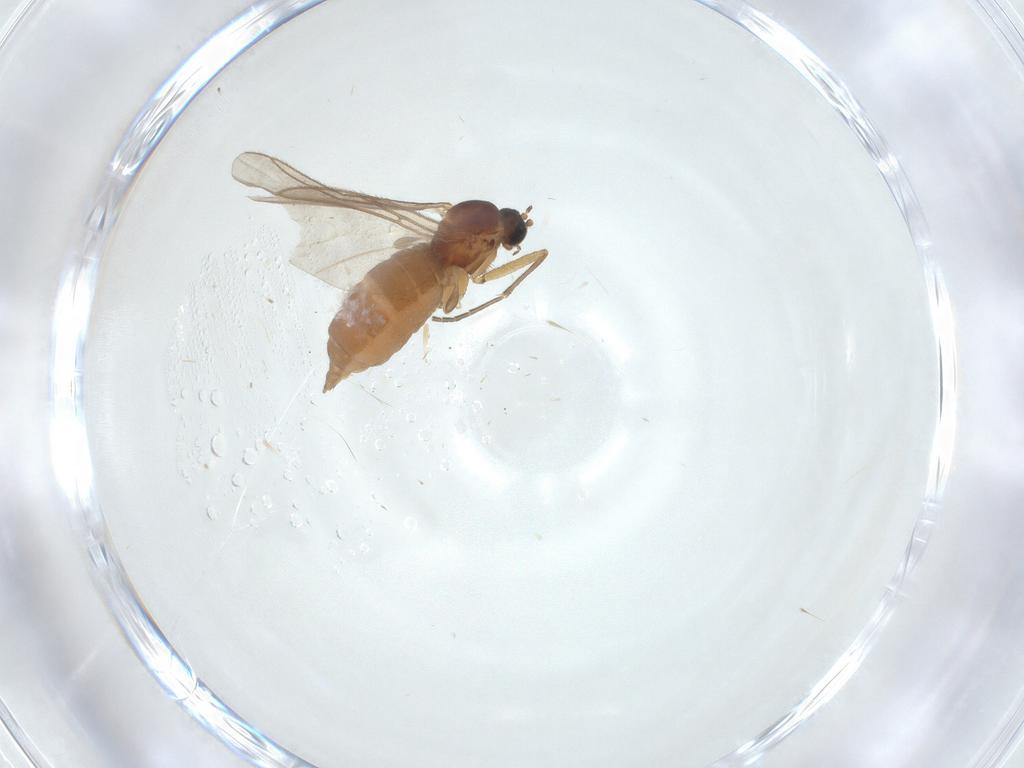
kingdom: Animalia
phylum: Arthropoda
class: Insecta
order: Diptera
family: Sciaridae
